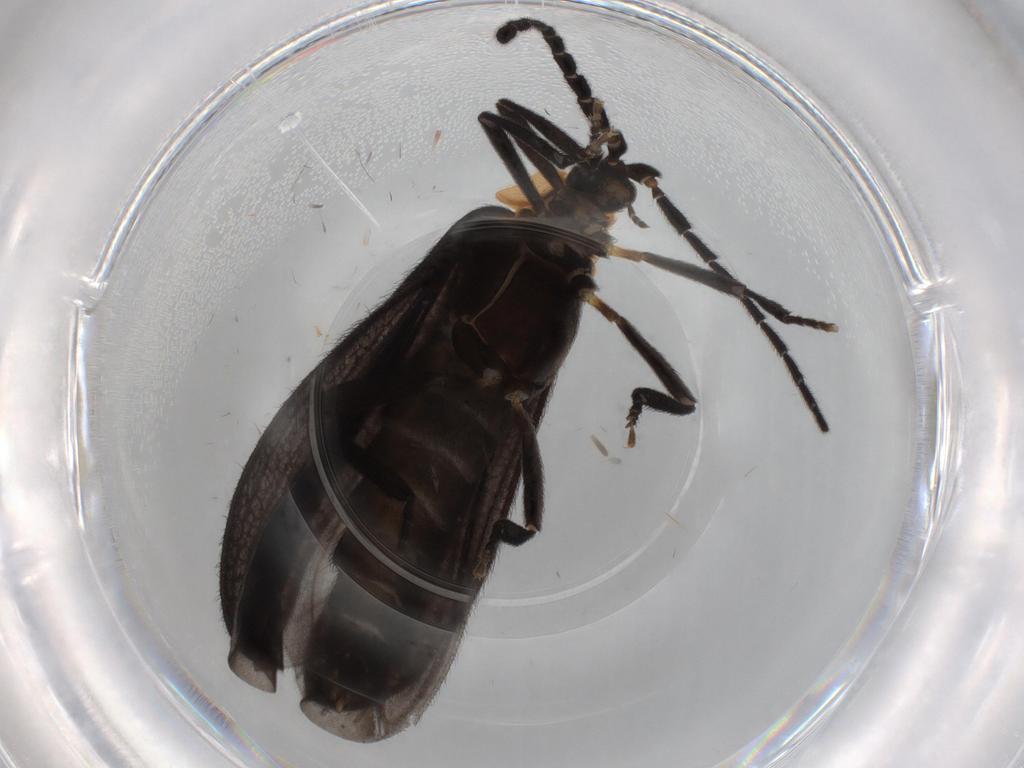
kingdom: Animalia
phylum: Arthropoda
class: Insecta
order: Coleoptera
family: Lycidae
